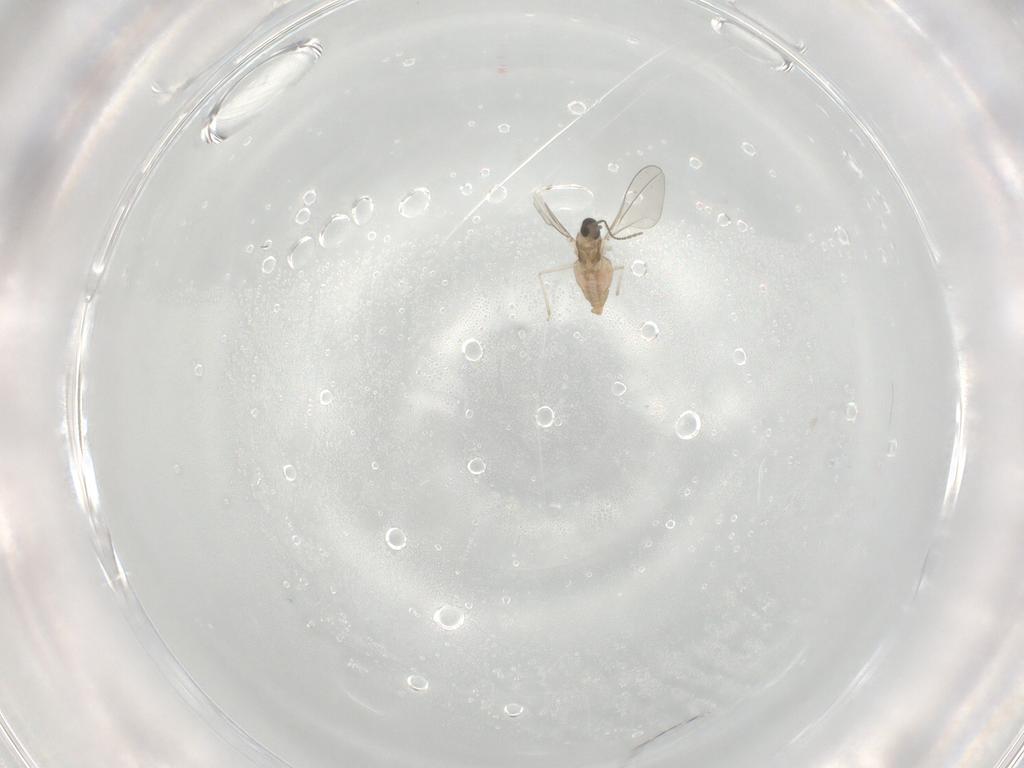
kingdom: Animalia
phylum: Arthropoda
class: Insecta
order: Diptera
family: Cecidomyiidae
